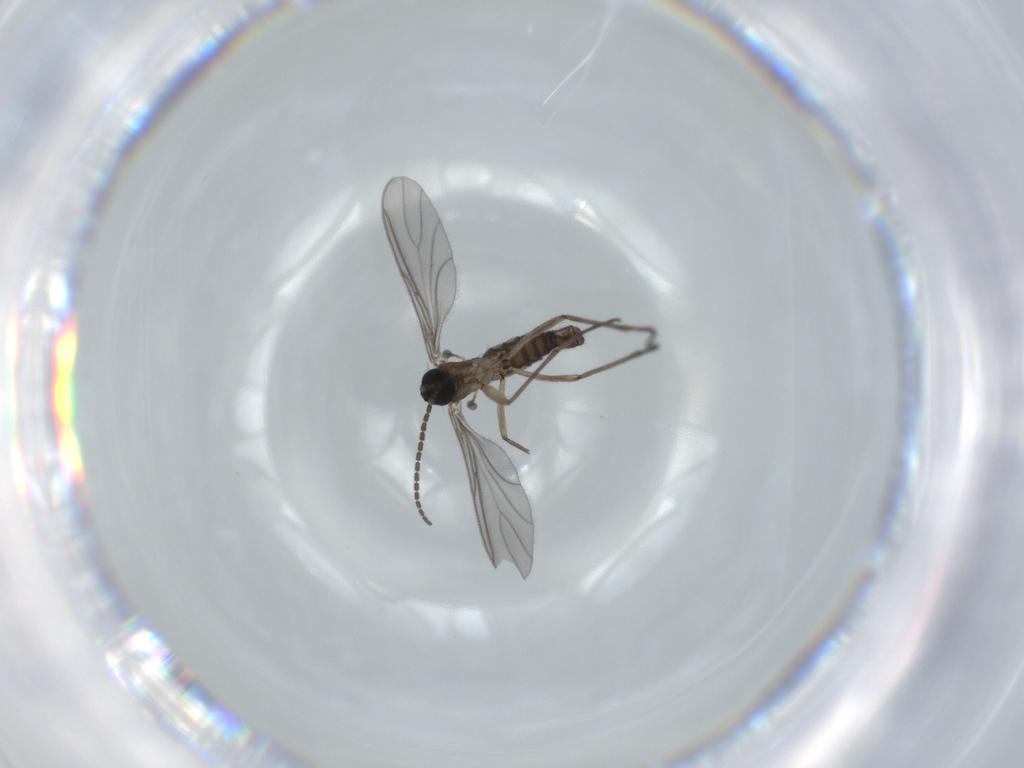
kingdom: Animalia
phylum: Arthropoda
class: Insecta
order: Diptera
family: Sciaridae
